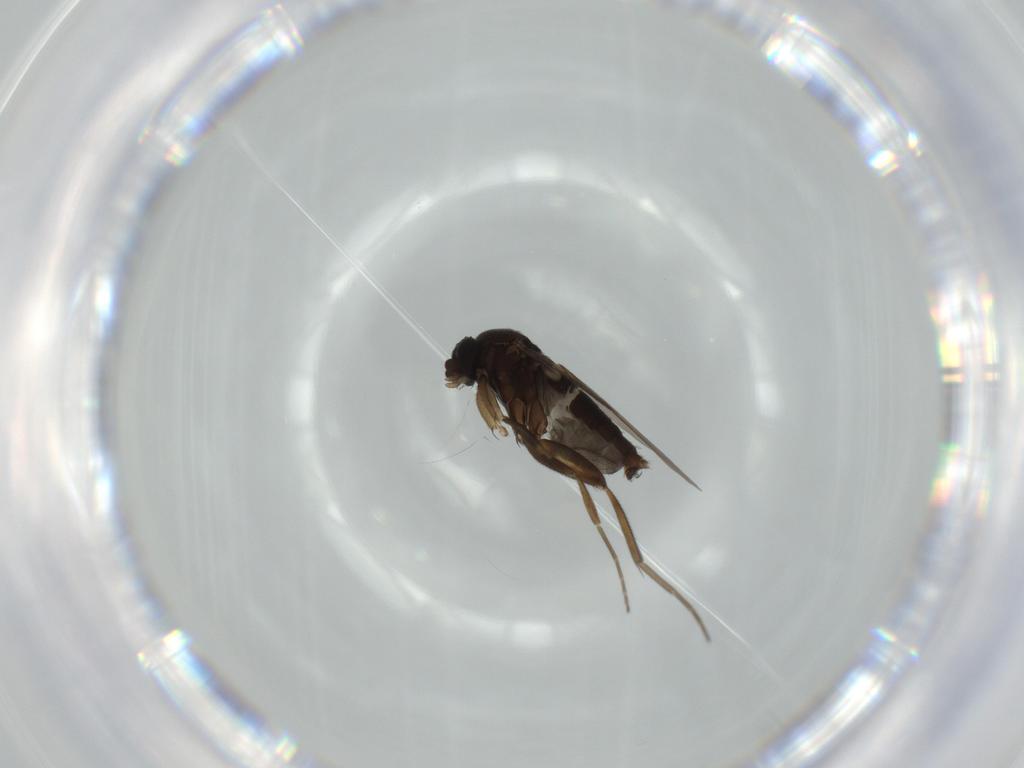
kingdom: Animalia
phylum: Arthropoda
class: Insecta
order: Diptera
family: Phoridae
